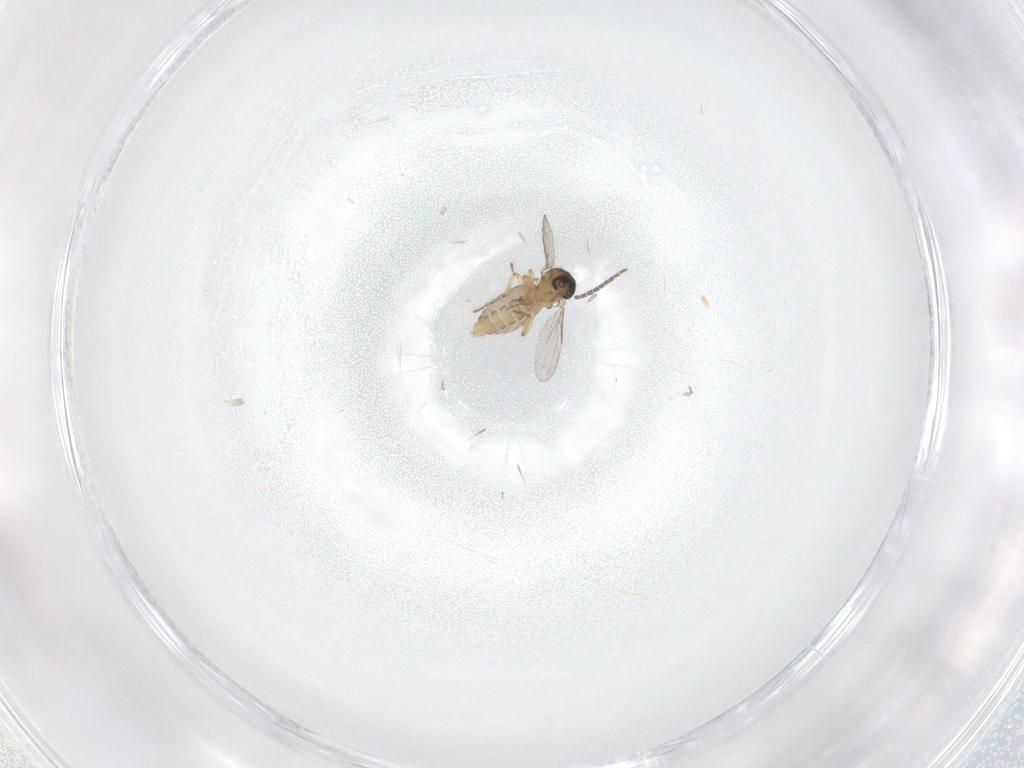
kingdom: Animalia
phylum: Arthropoda
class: Insecta
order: Diptera
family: Ceratopogonidae
